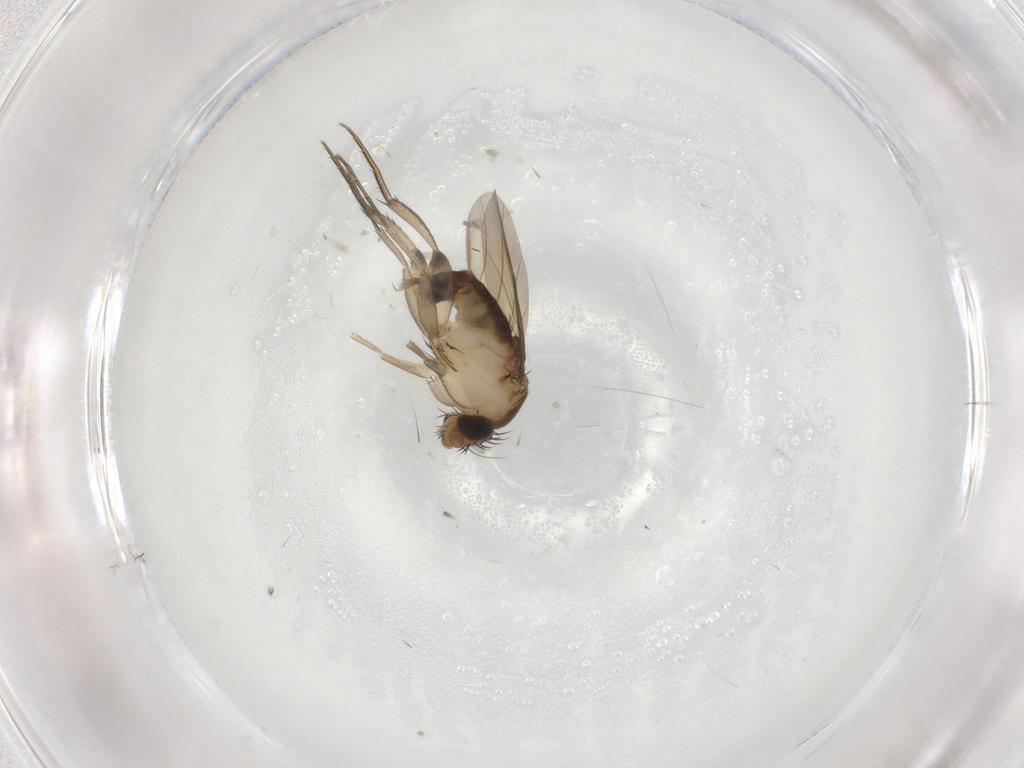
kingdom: Animalia
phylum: Arthropoda
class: Insecta
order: Diptera
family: Phoridae
